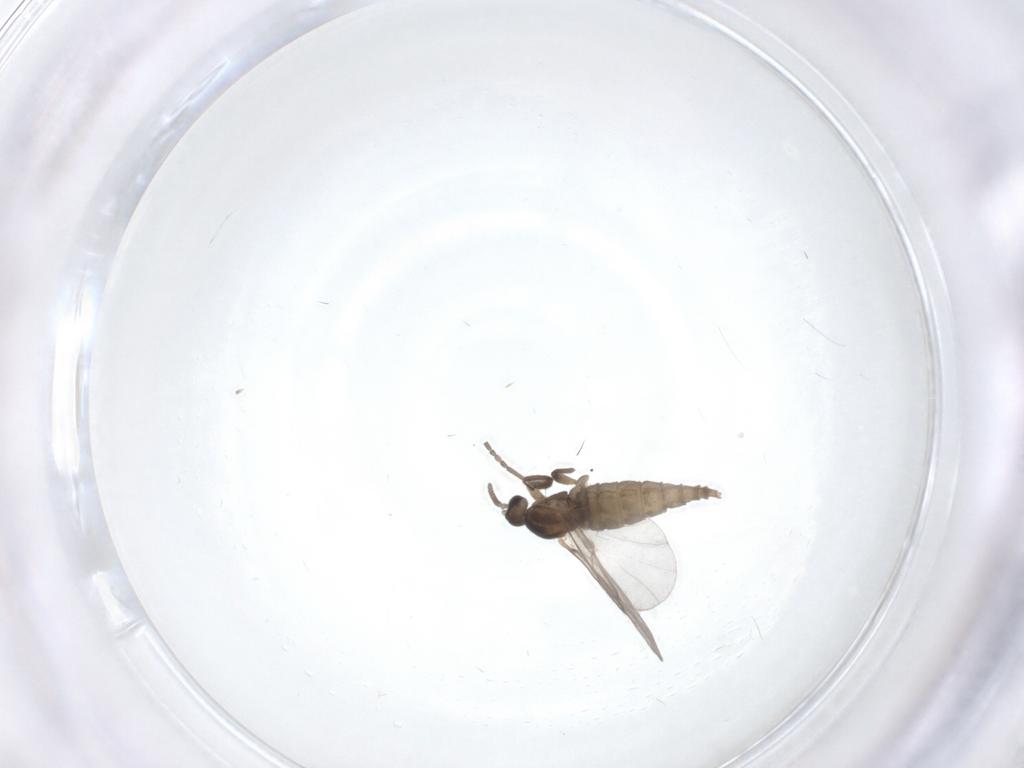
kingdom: Animalia
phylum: Arthropoda
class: Insecta
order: Diptera
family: Cecidomyiidae
